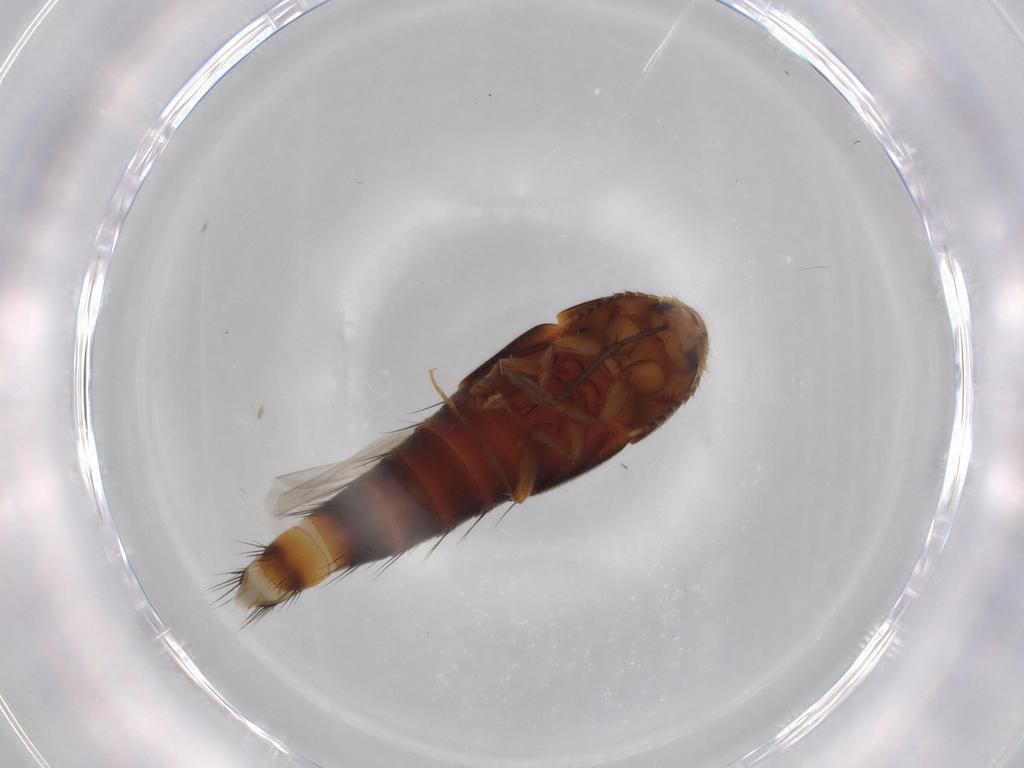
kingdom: Animalia
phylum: Arthropoda
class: Insecta
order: Coleoptera
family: Staphylinidae
